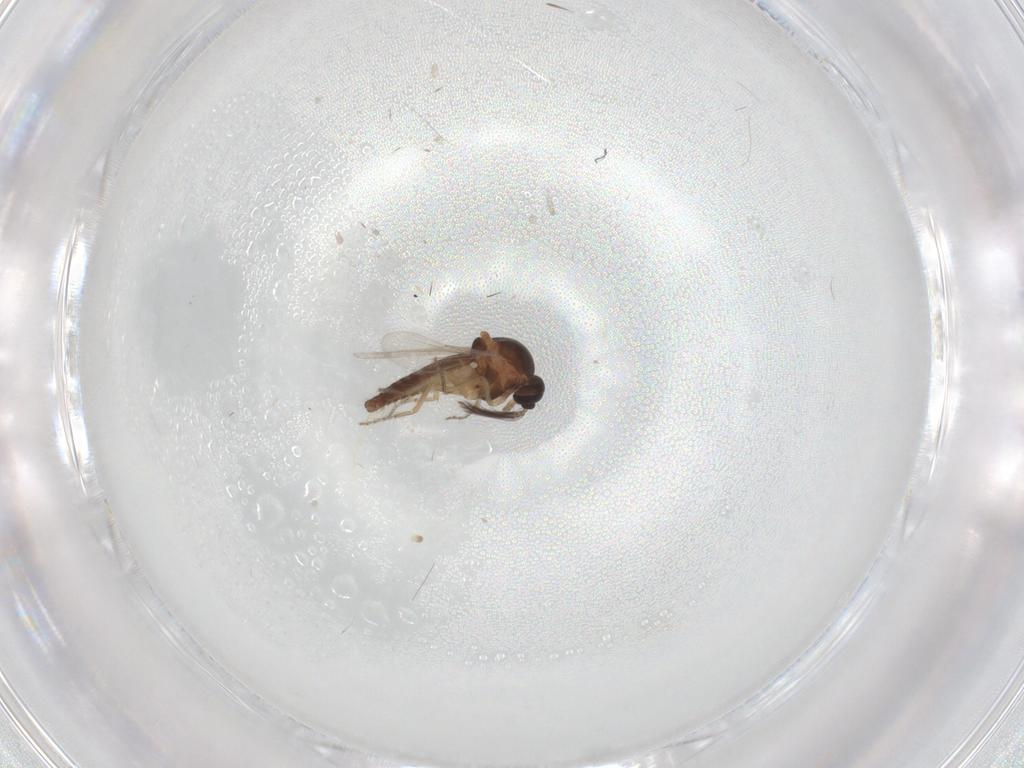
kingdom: Animalia
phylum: Arthropoda
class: Insecta
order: Diptera
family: Ceratopogonidae
